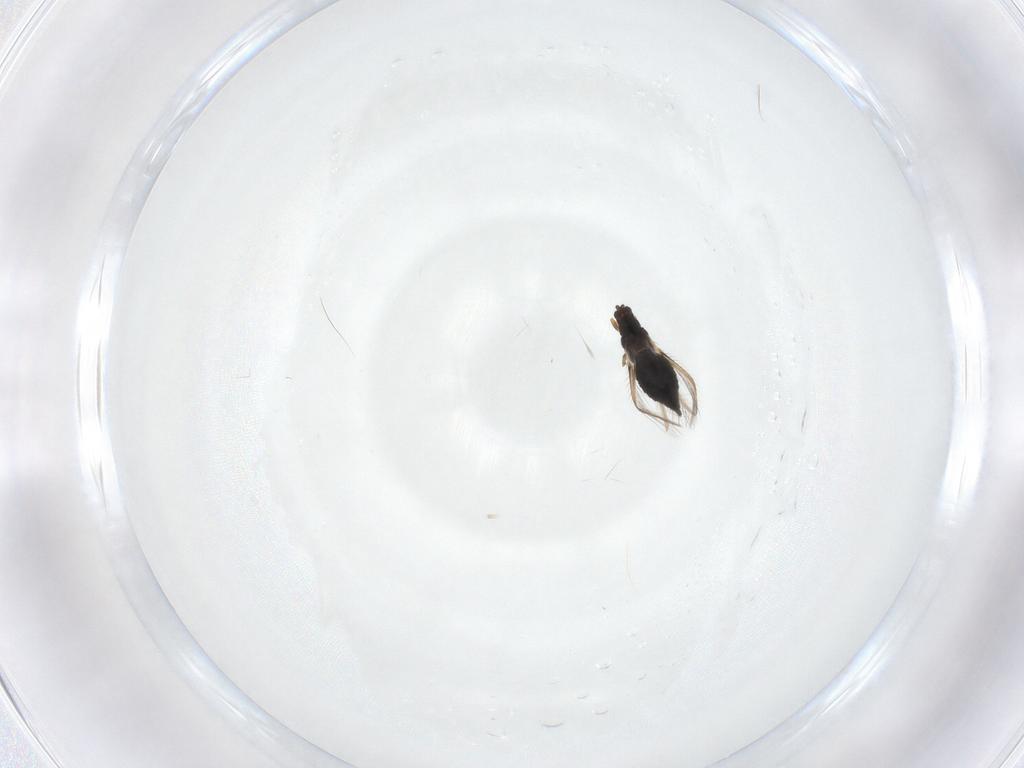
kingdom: Animalia
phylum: Arthropoda
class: Insecta
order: Thysanoptera
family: Thripidae
